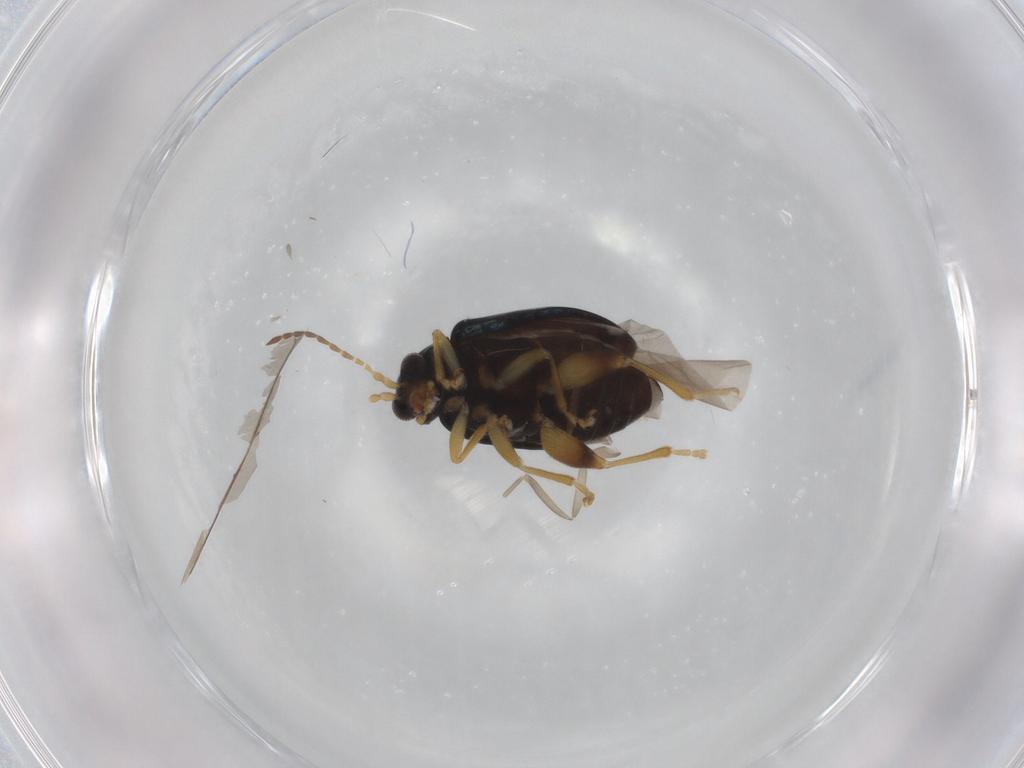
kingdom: Animalia
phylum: Arthropoda
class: Insecta
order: Coleoptera
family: Chrysomelidae
